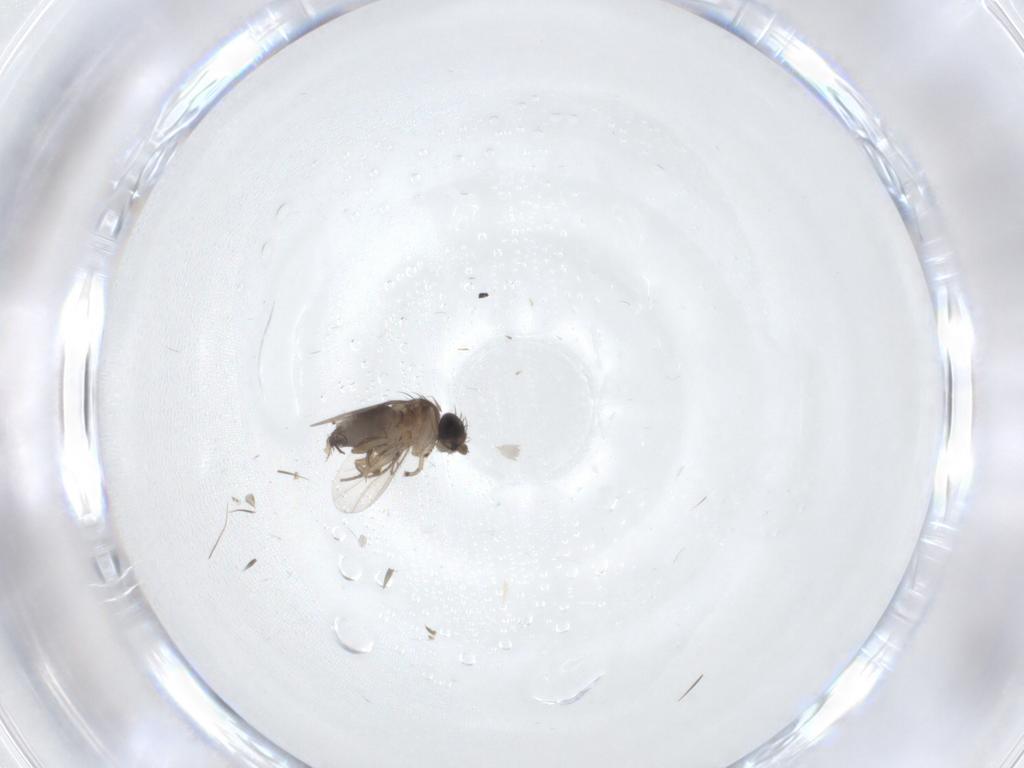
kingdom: Animalia
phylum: Arthropoda
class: Insecta
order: Diptera
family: Phoridae
